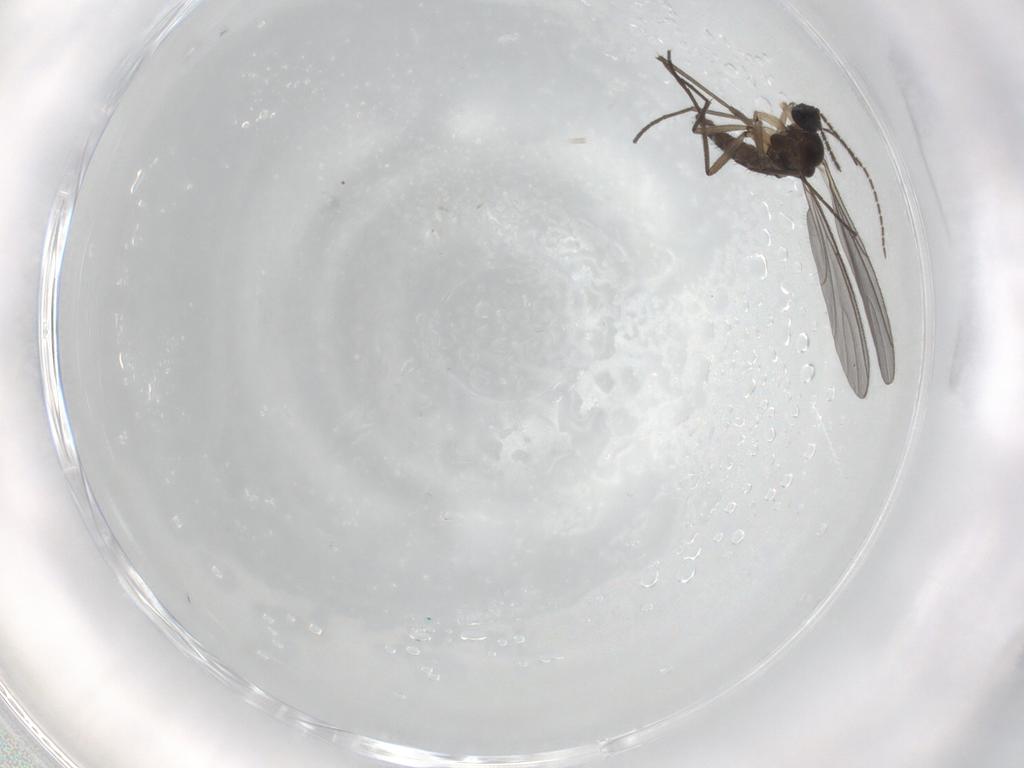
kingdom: Animalia
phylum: Arthropoda
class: Insecta
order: Diptera
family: Sciaridae
